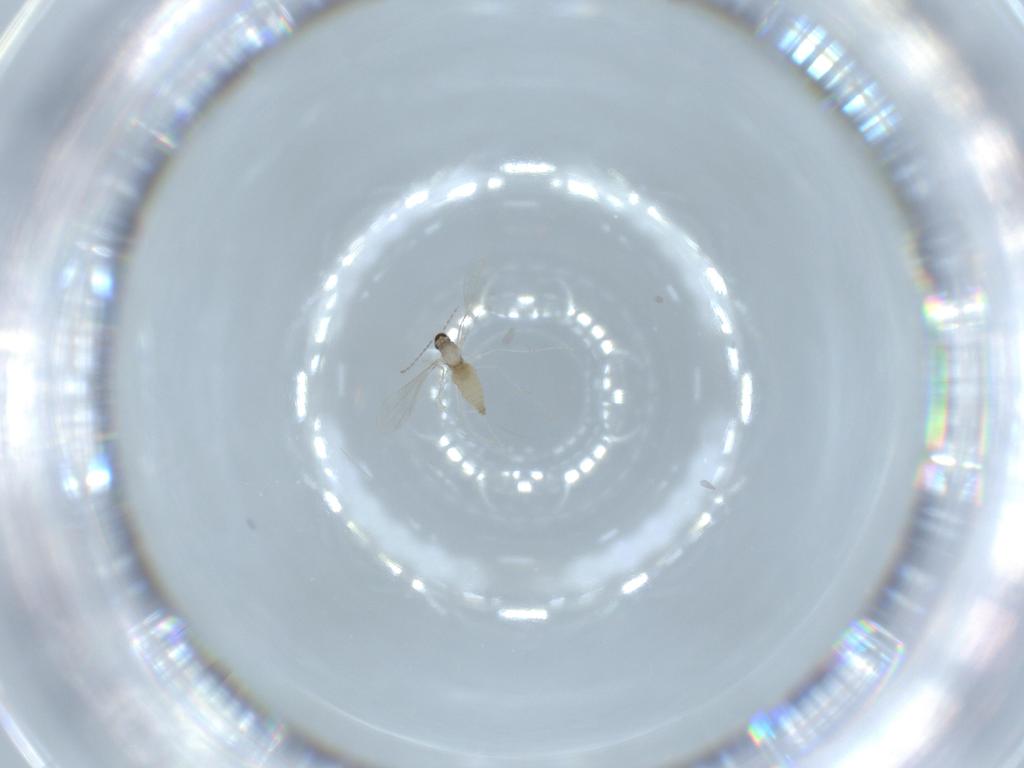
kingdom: Animalia
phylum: Arthropoda
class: Insecta
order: Diptera
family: Cecidomyiidae
